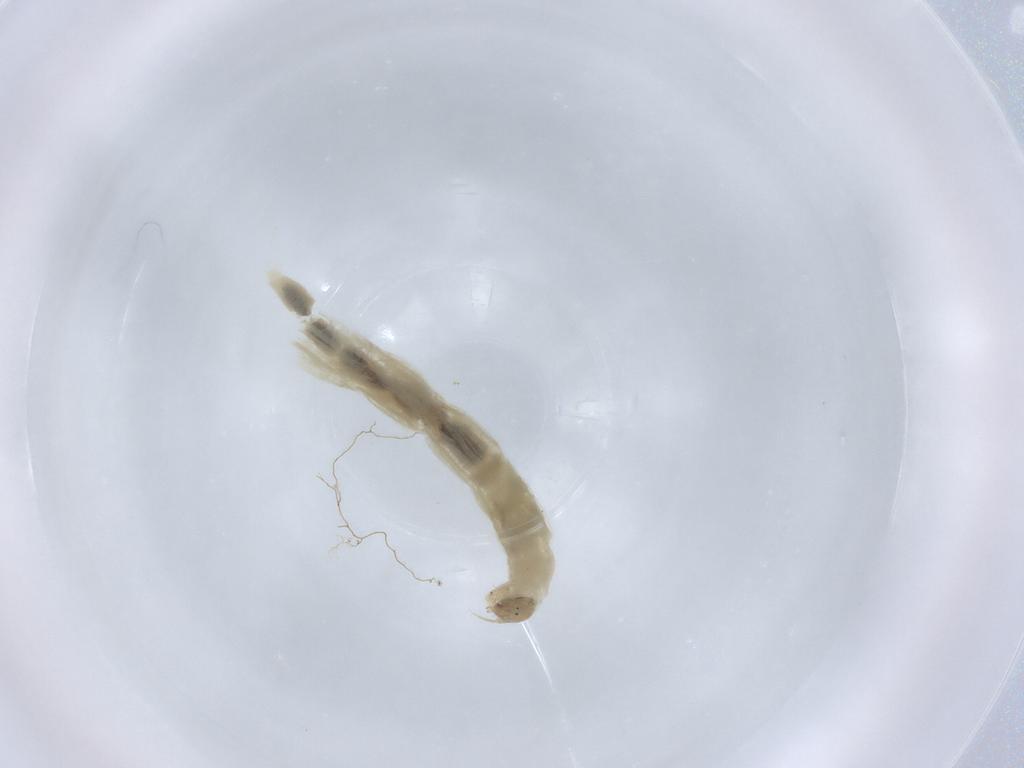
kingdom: Animalia
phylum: Arthropoda
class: Insecta
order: Diptera
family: Chironomidae
